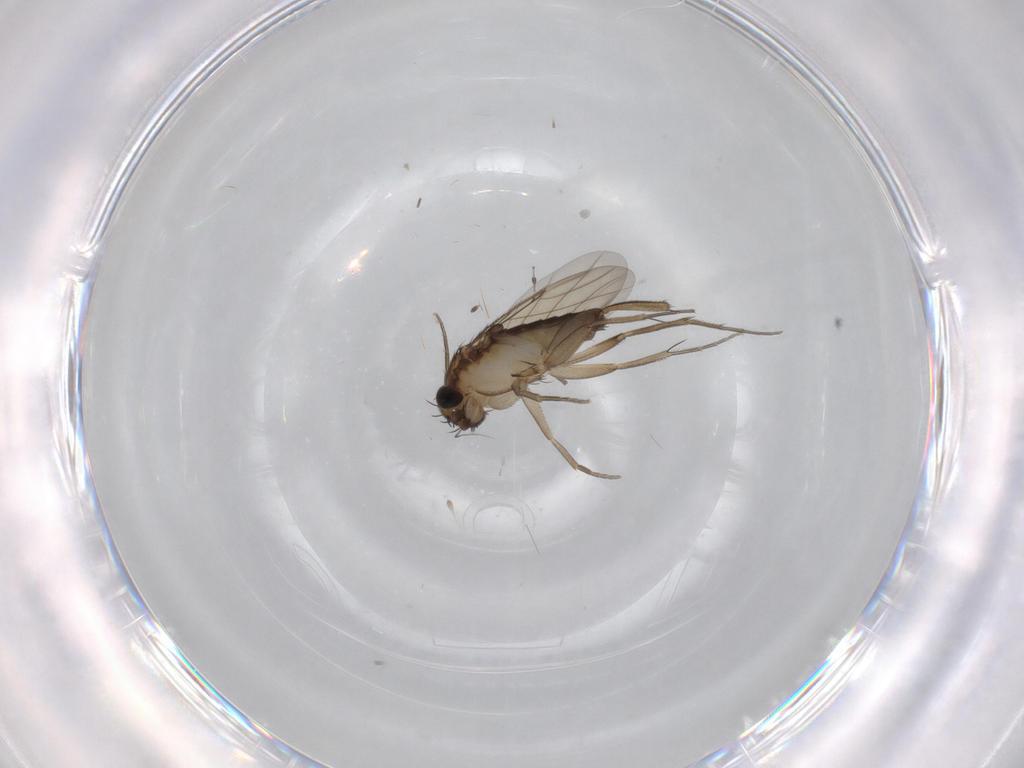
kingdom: Animalia
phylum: Arthropoda
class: Insecta
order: Diptera
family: Phoridae
